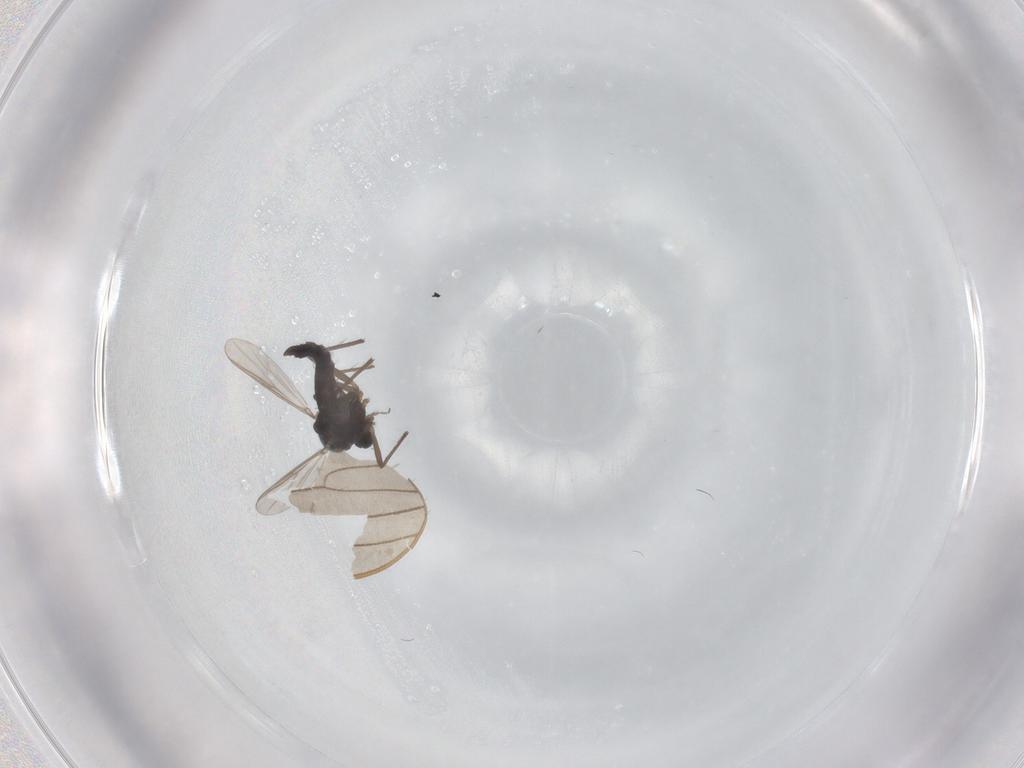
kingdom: Animalia
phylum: Arthropoda
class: Insecta
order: Diptera
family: Chironomidae
